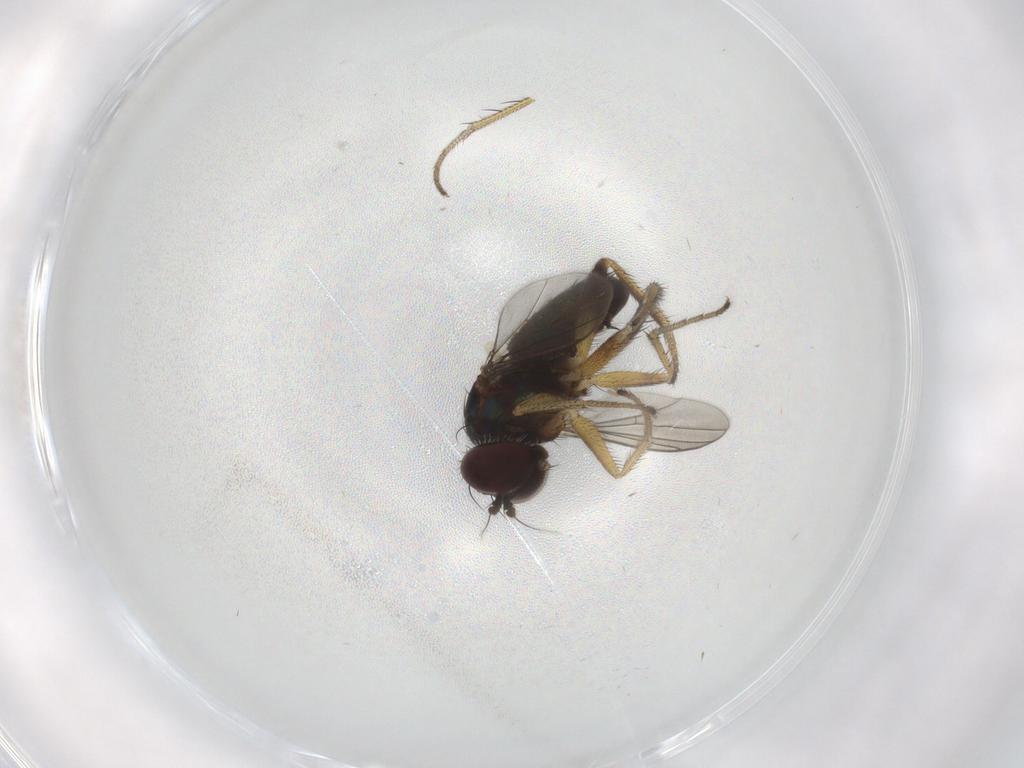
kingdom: Animalia
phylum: Arthropoda
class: Insecta
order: Diptera
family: Dolichopodidae
